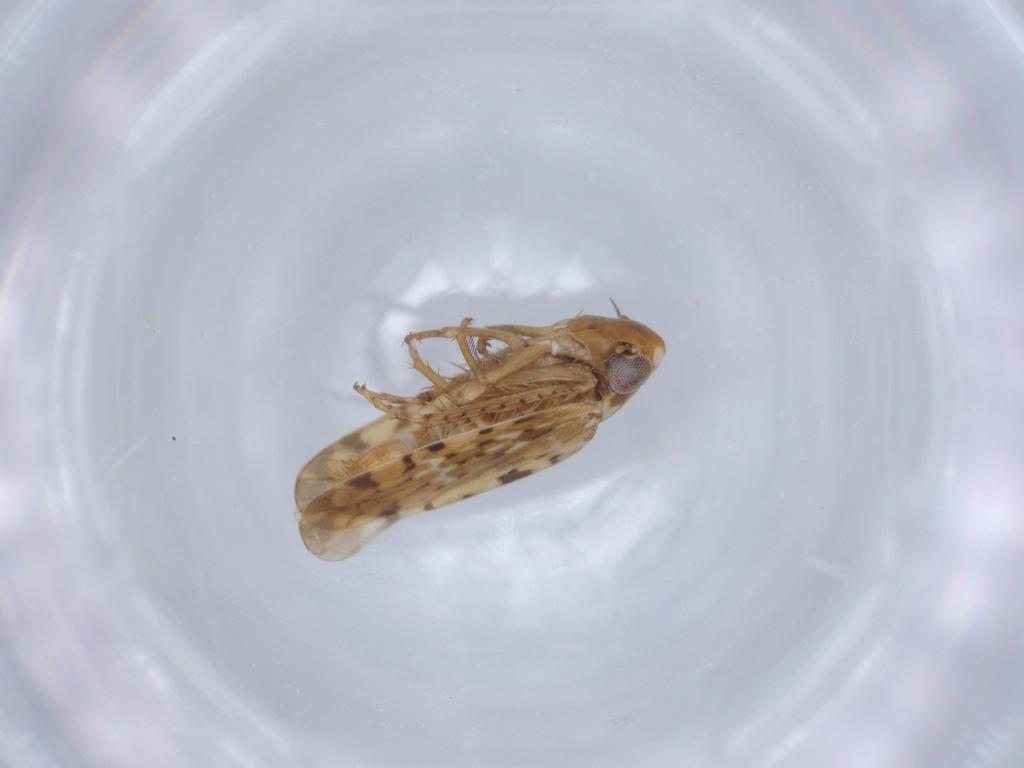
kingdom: Animalia
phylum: Arthropoda
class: Insecta
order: Hemiptera
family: Cicadellidae
